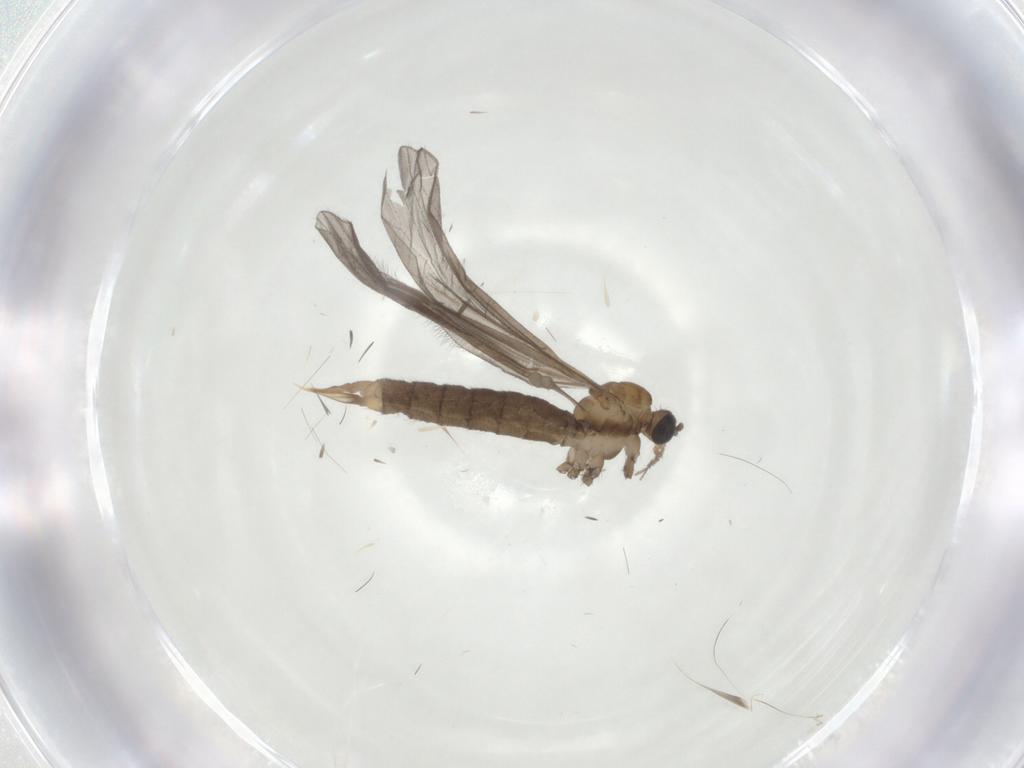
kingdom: Animalia
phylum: Arthropoda
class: Insecta
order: Diptera
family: Limoniidae
